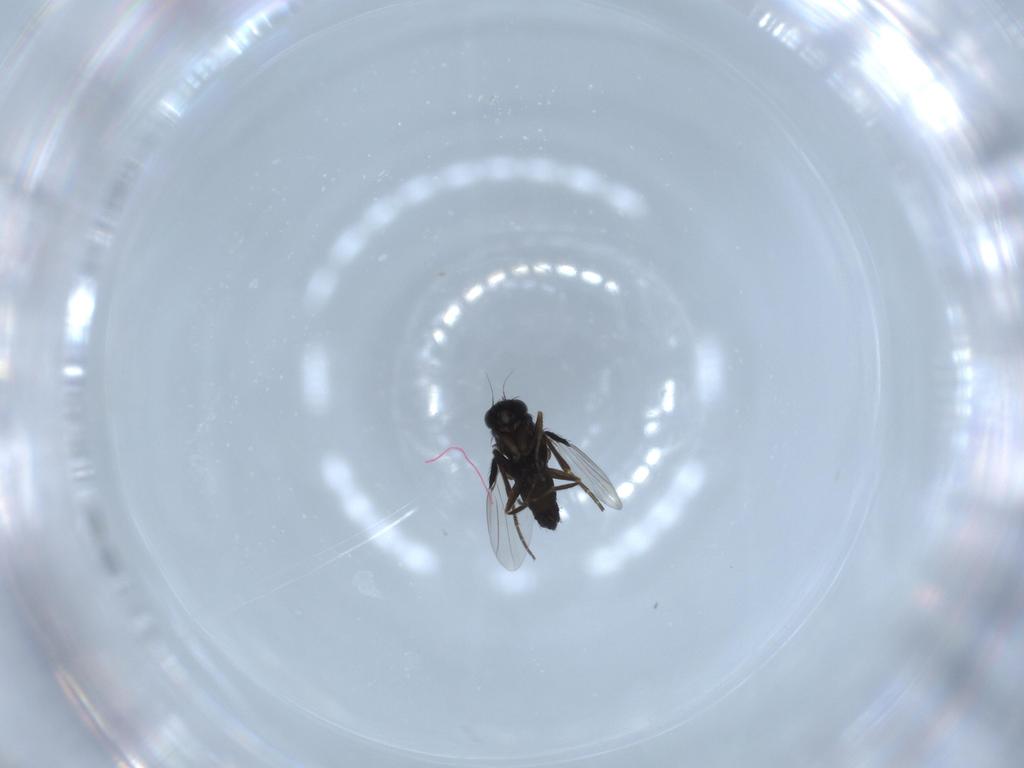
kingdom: Animalia
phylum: Arthropoda
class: Insecta
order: Diptera
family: Phoridae
